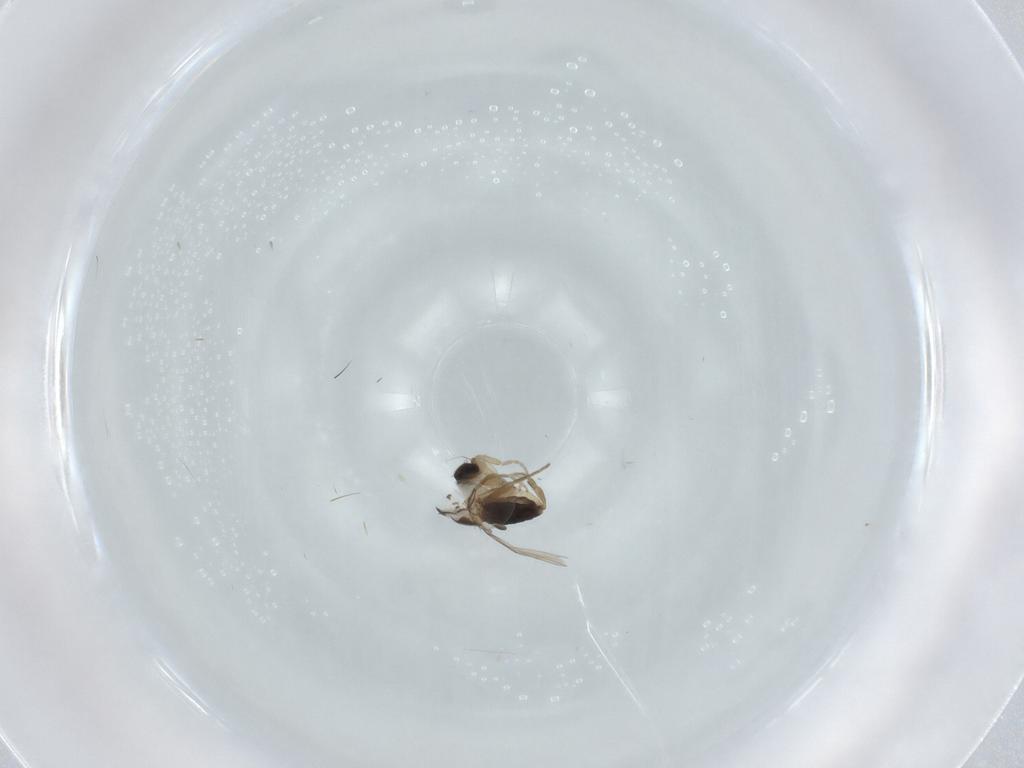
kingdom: Animalia
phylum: Arthropoda
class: Insecta
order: Diptera
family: Phoridae
